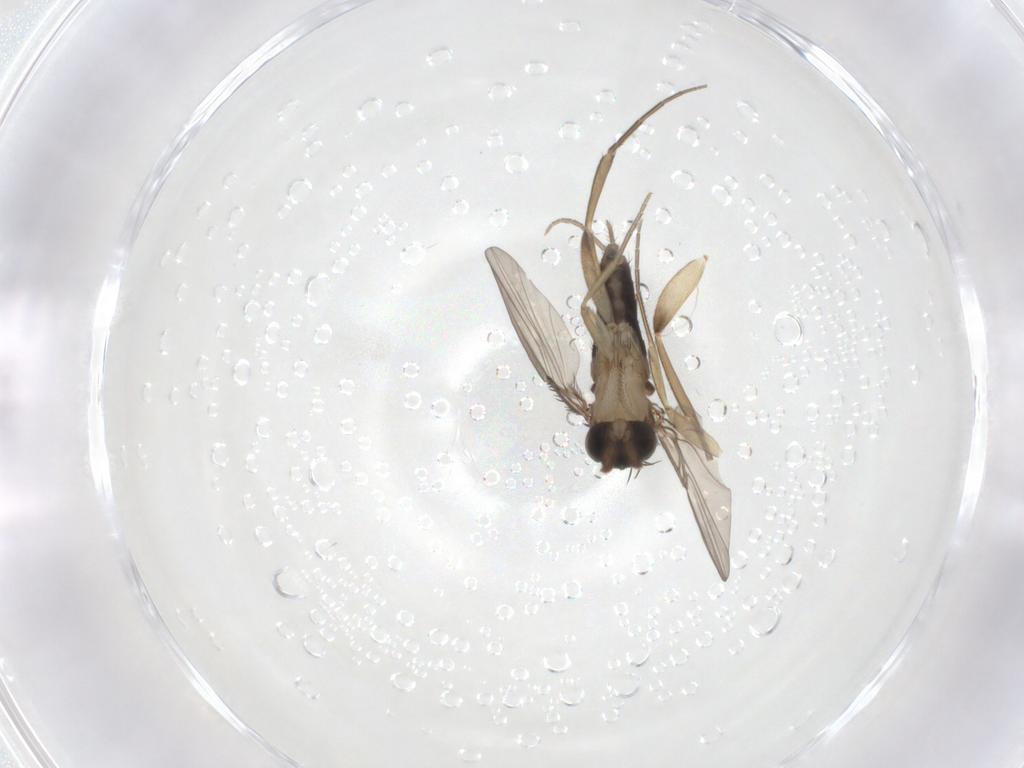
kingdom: Animalia
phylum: Arthropoda
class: Insecta
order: Diptera
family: Phoridae
